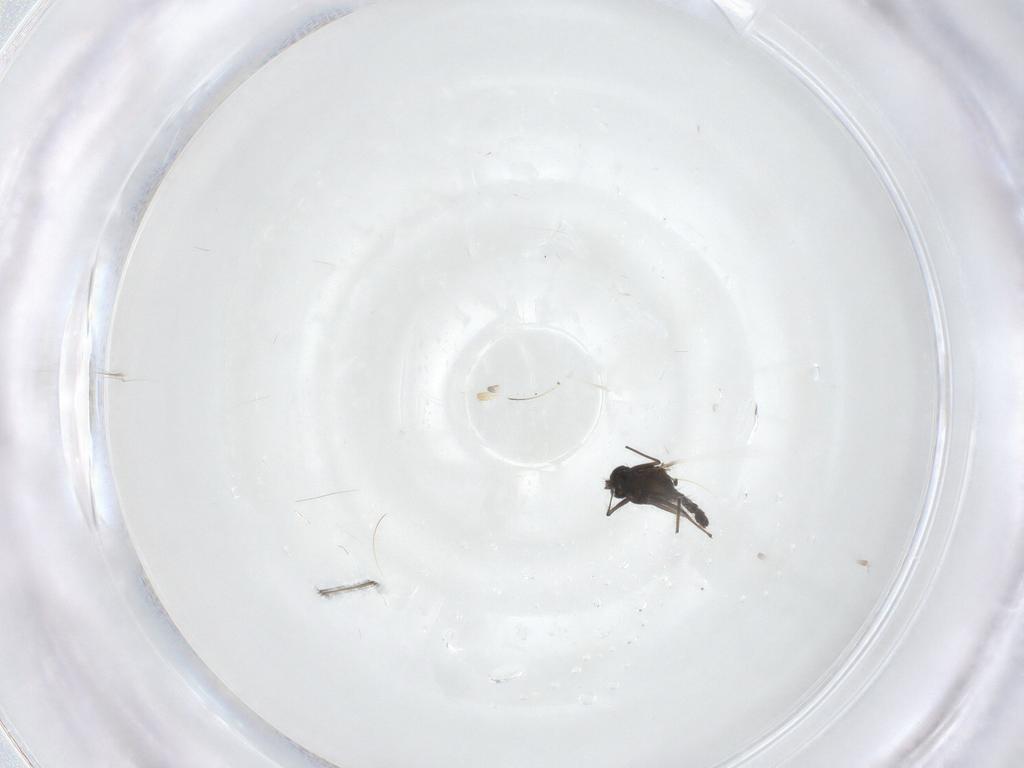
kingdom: Animalia
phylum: Arthropoda
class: Insecta
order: Diptera
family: Chironomidae
